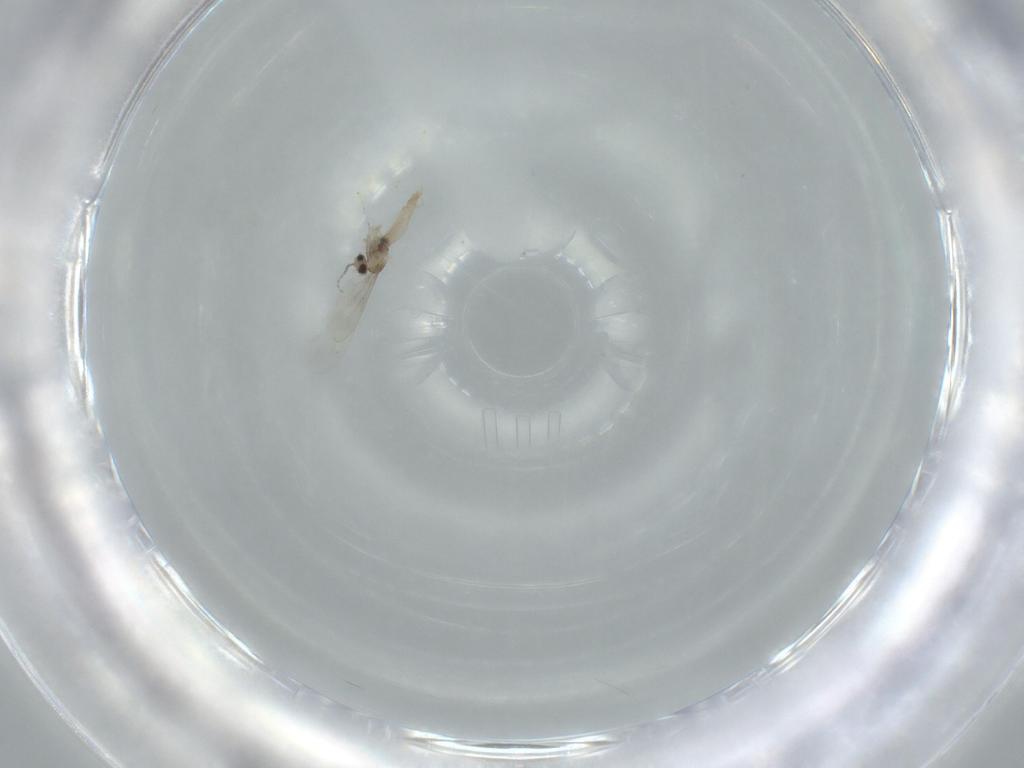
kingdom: Animalia
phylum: Arthropoda
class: Insecta
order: Diptera
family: Cecidomyiidae
